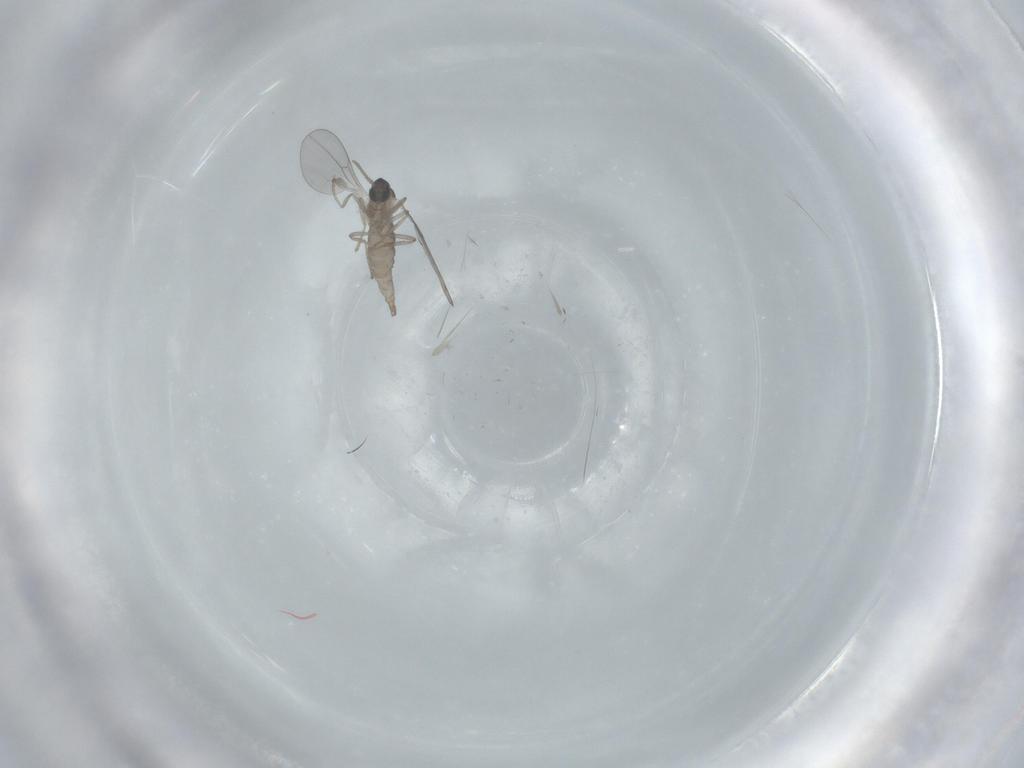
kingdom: Animalia
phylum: Arthropoda
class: Insecta
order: Diptera
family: Cecidomyiidae
